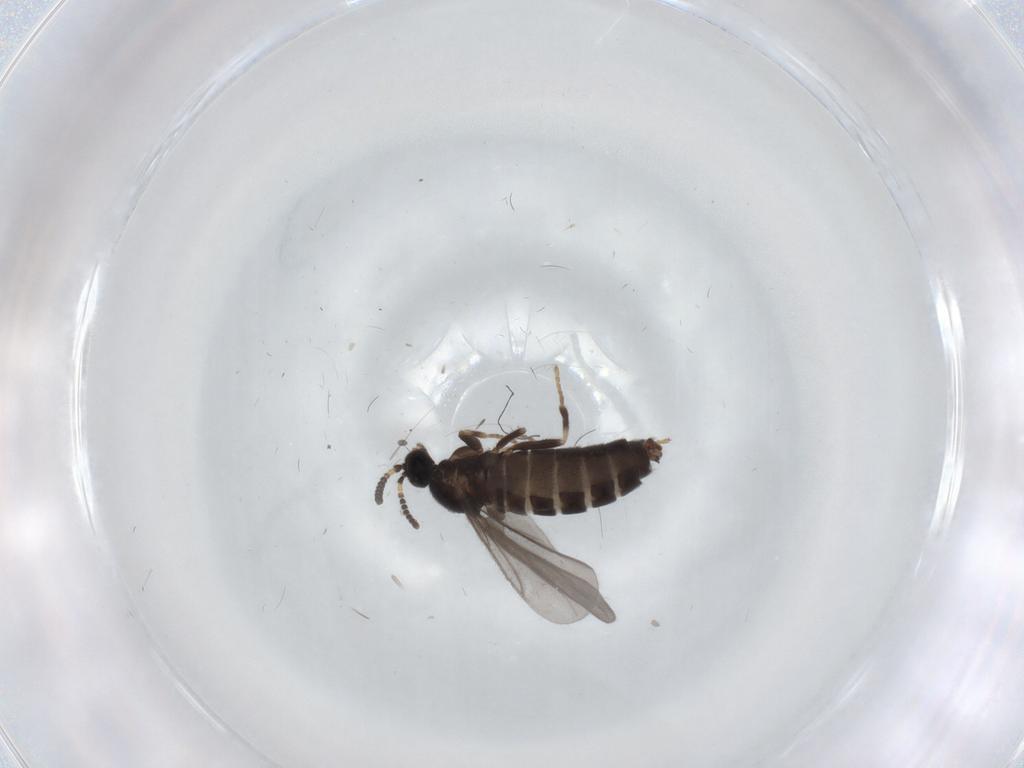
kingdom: Animalia
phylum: Arthropoda
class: Insecta
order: Diptera
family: Scatopsidae
